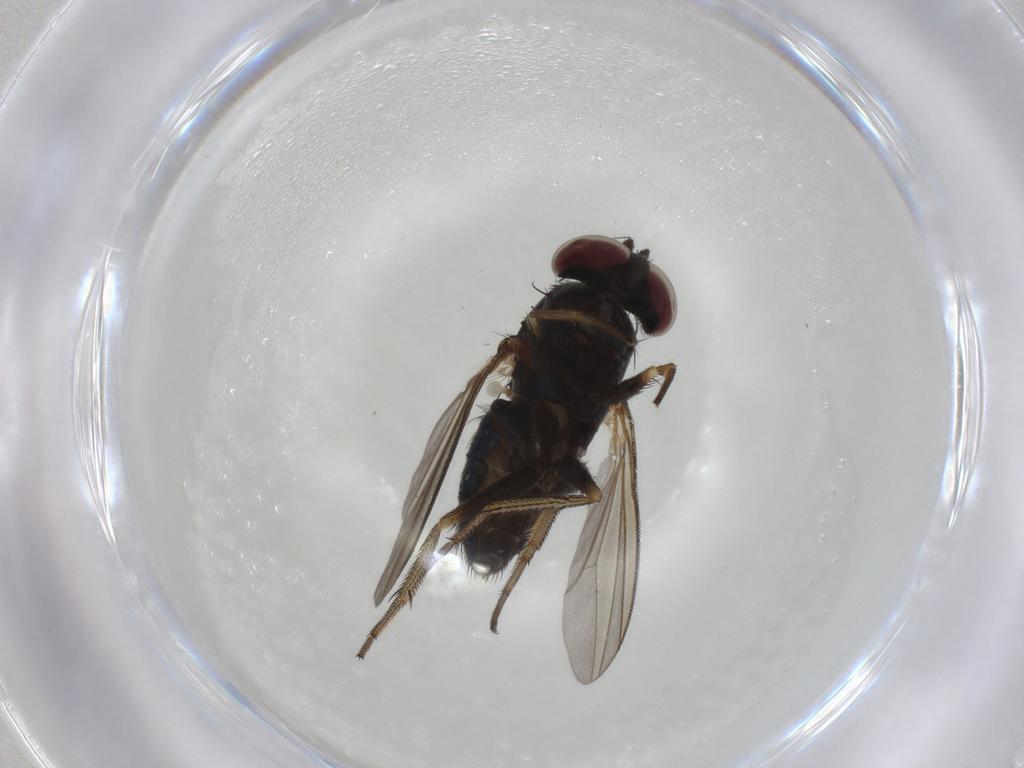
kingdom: Animalia
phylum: Arthropoda
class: Insecta
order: Diptera
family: Dolichopodidae
